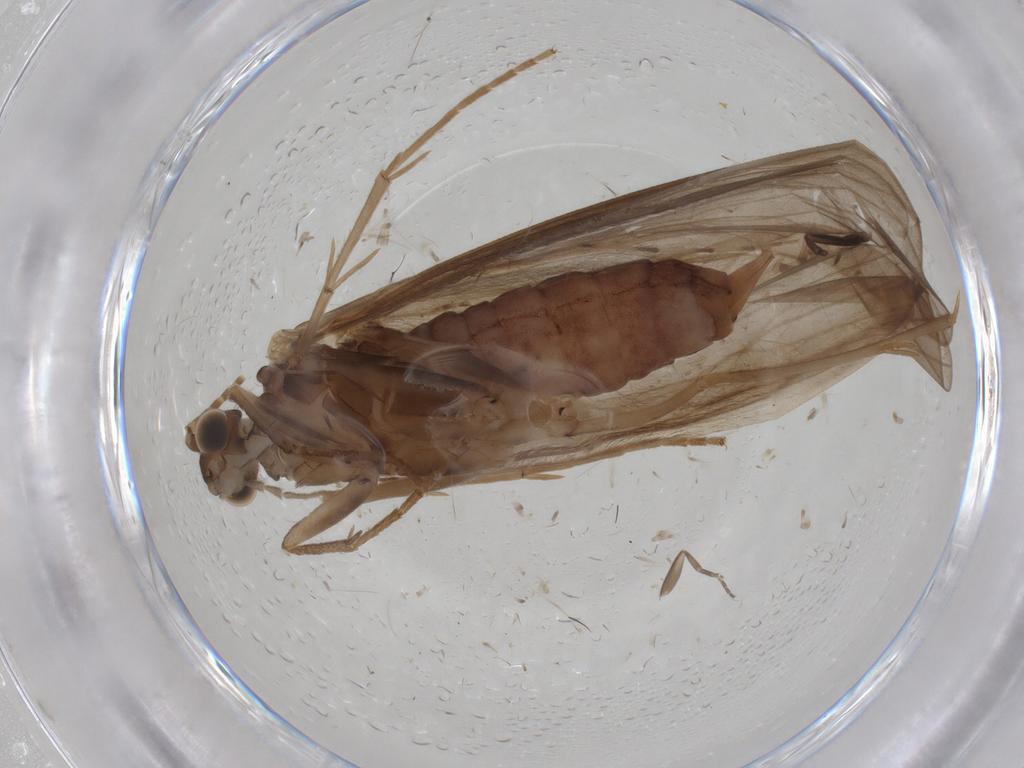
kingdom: Animalia
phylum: Arthropoda
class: Insecta
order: Trichoptera
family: Psychomyiidae
